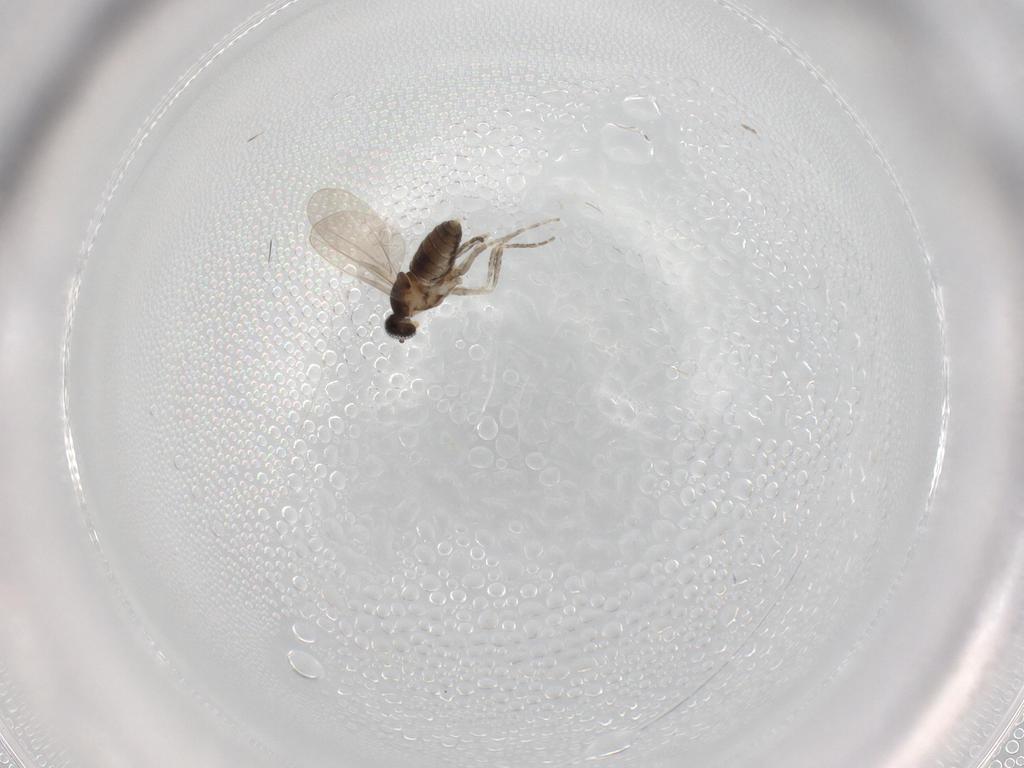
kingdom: Animalia
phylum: Arthropoda
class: Insecta
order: Diptera
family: Cecidomyiidae
